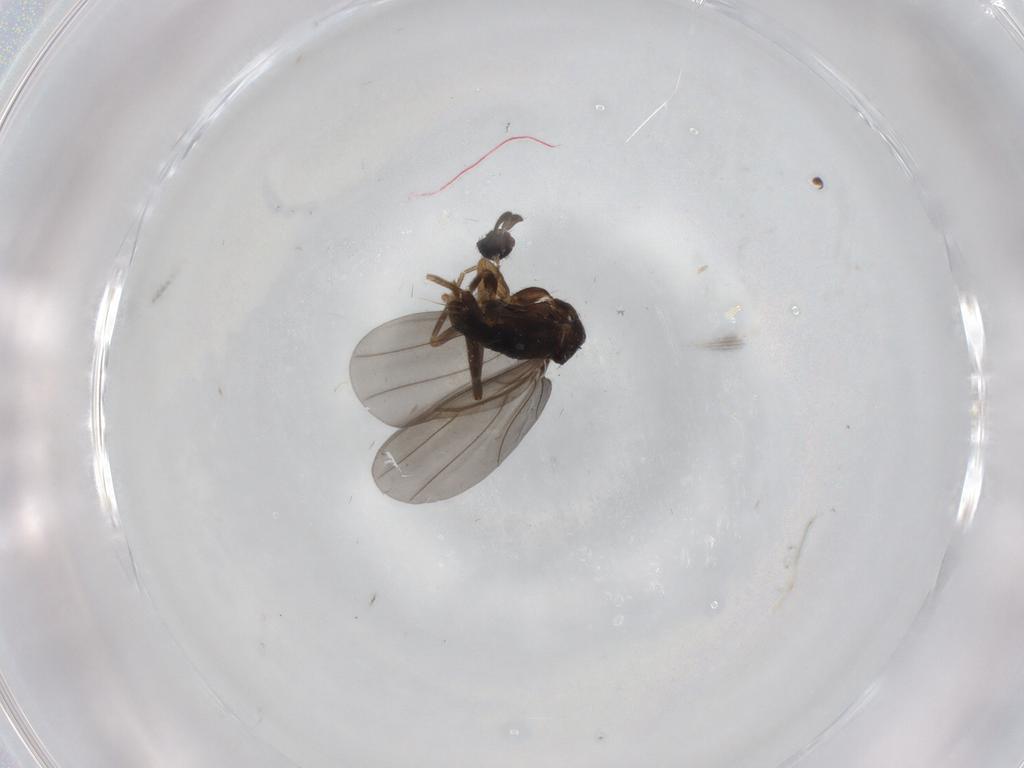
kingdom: Animalia
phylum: Arthropoda
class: Insecta
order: Diptera
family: Phoridae
